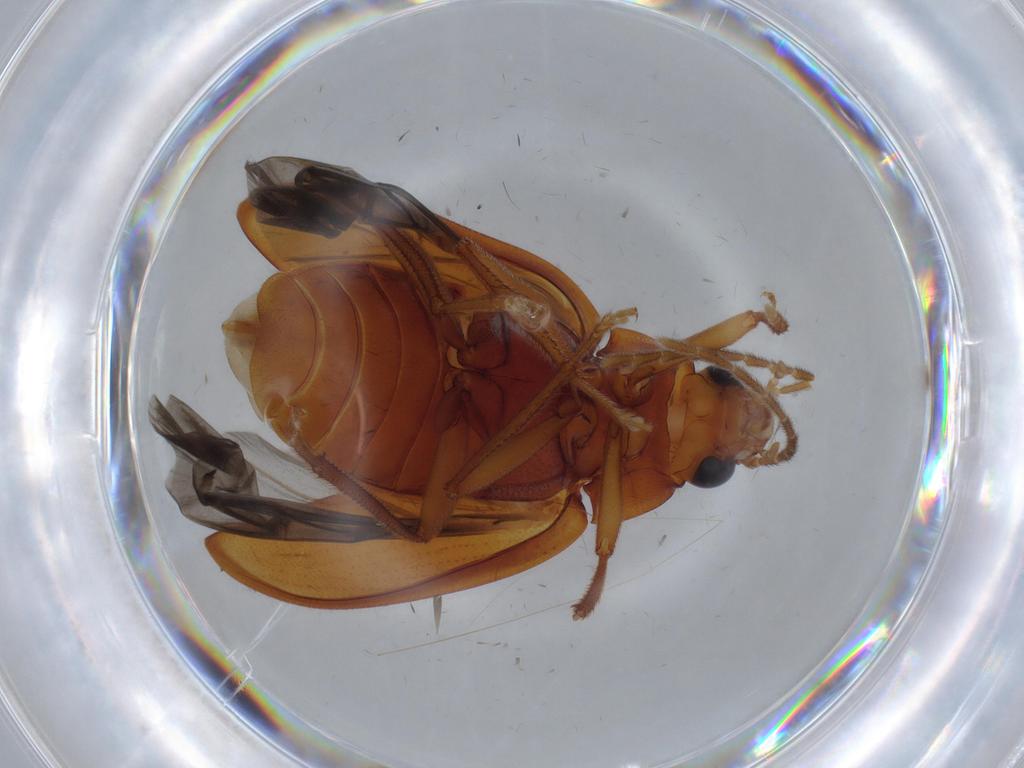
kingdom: Animalia
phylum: Arthropoda
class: Insecta
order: Coleoptera
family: Ptilodactylidae
